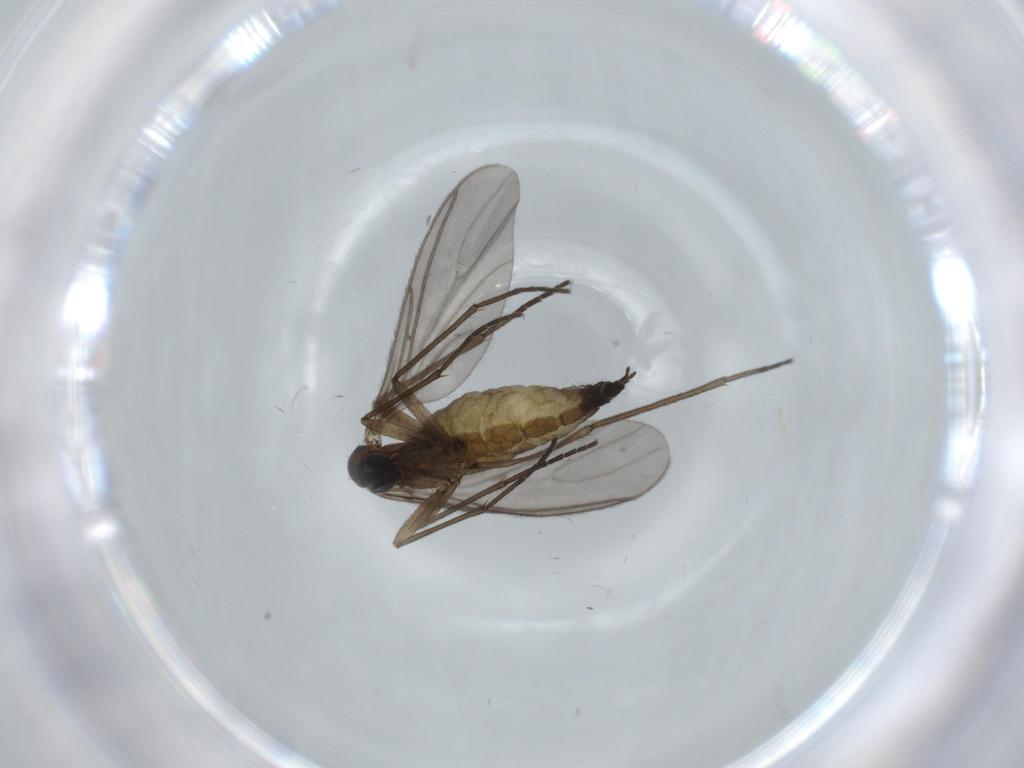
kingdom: Animalia
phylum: Arthropoda
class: Insecta
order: Diptera
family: Sciaridae
